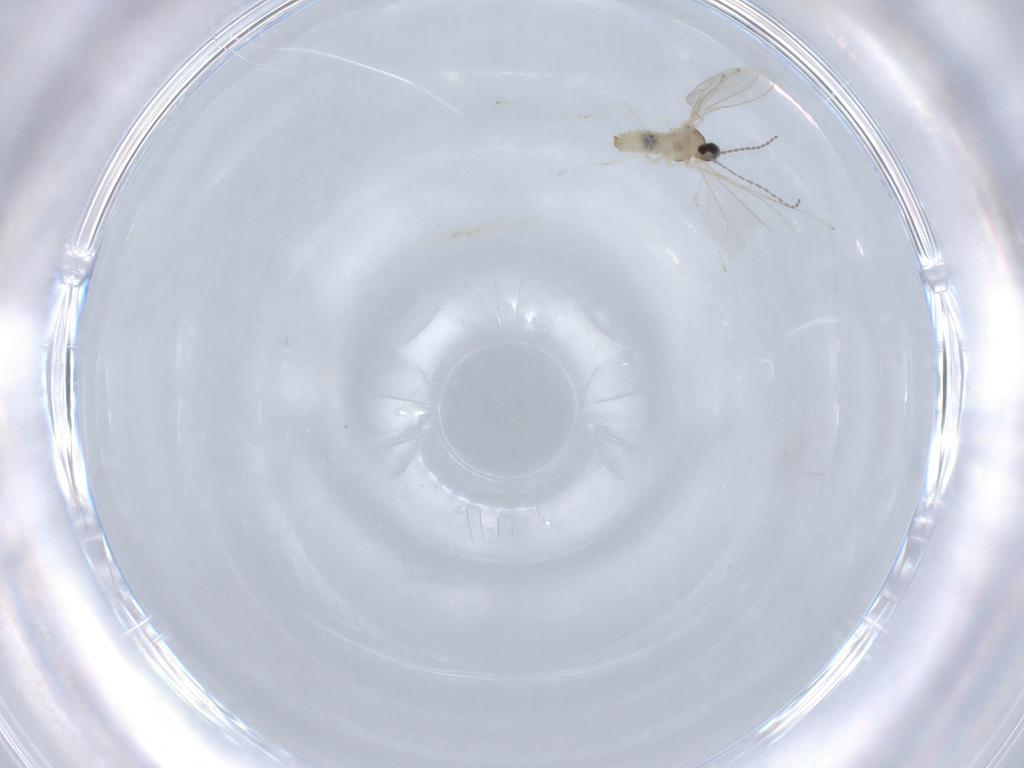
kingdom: Animalia
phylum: Arthropoda
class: Insecta
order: Diptera
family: Cecidomyiidae
